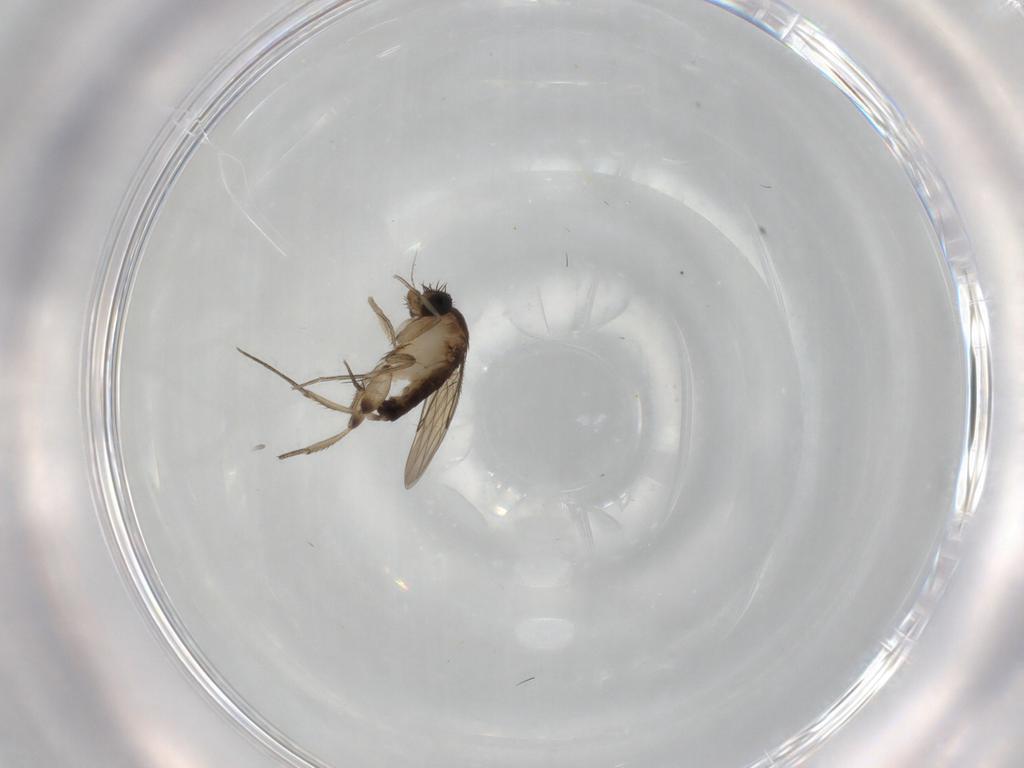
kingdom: Animalia
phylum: Arthropoda
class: Insecta
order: Diptera
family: Phoridae
